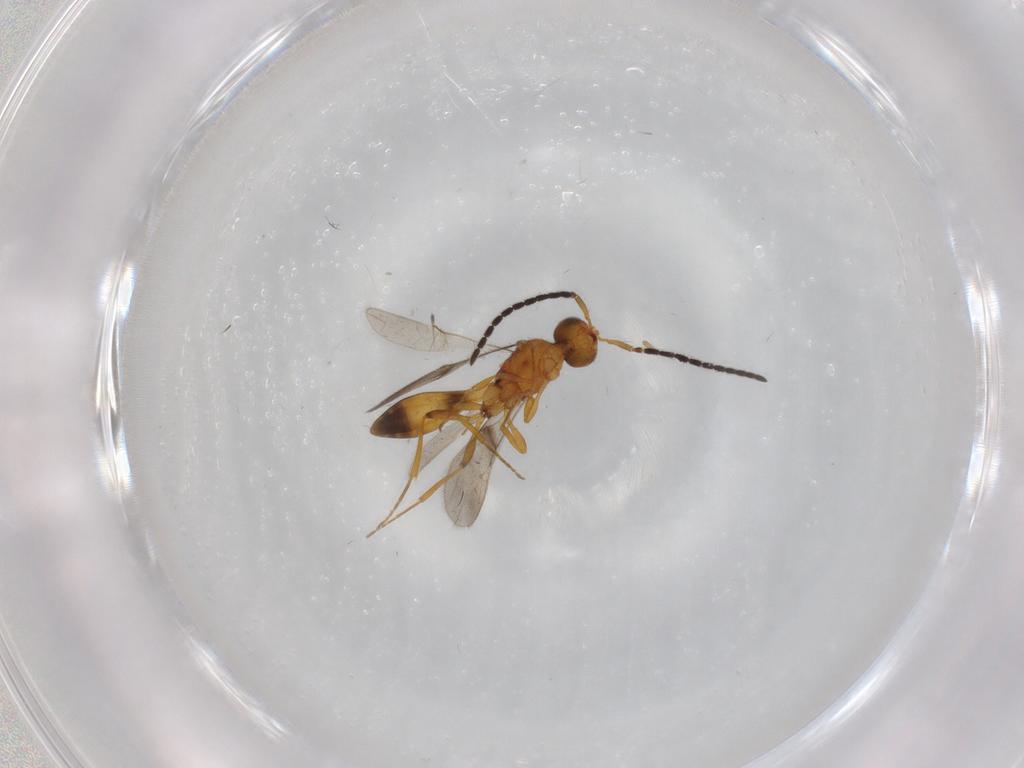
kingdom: Animalia
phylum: Arthropoda
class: Insecta
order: Hymenoptera
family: Scelionidae
